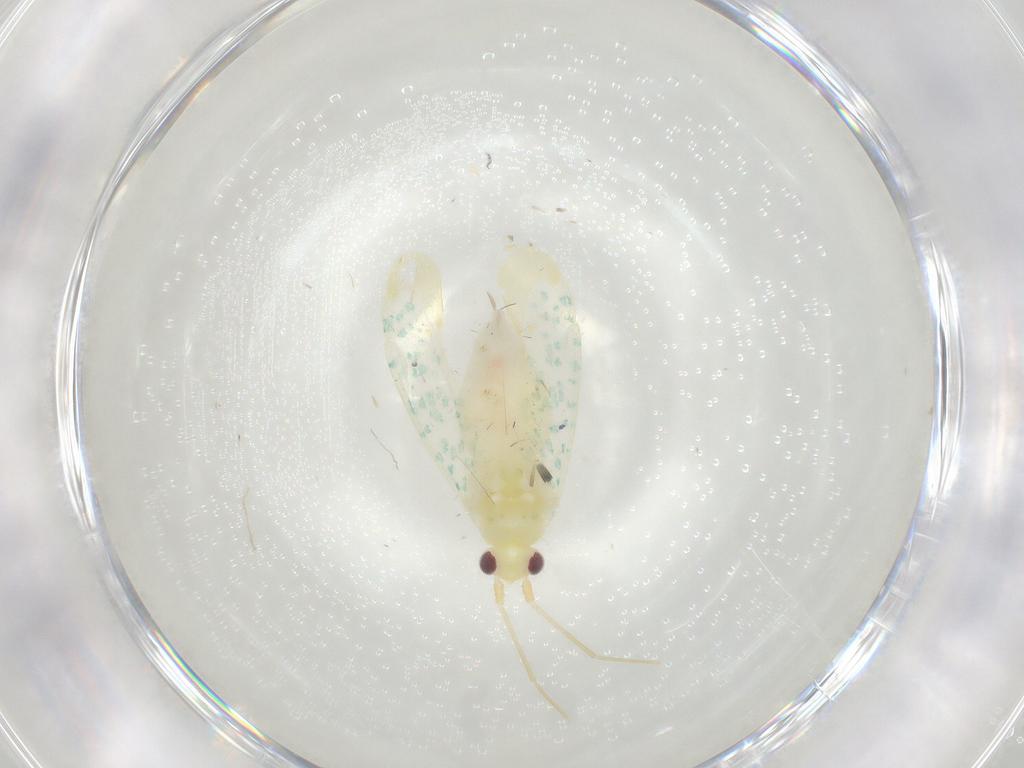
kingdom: Animalia
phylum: Arthropoda
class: Insecta
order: Hemiptera
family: Miridae
